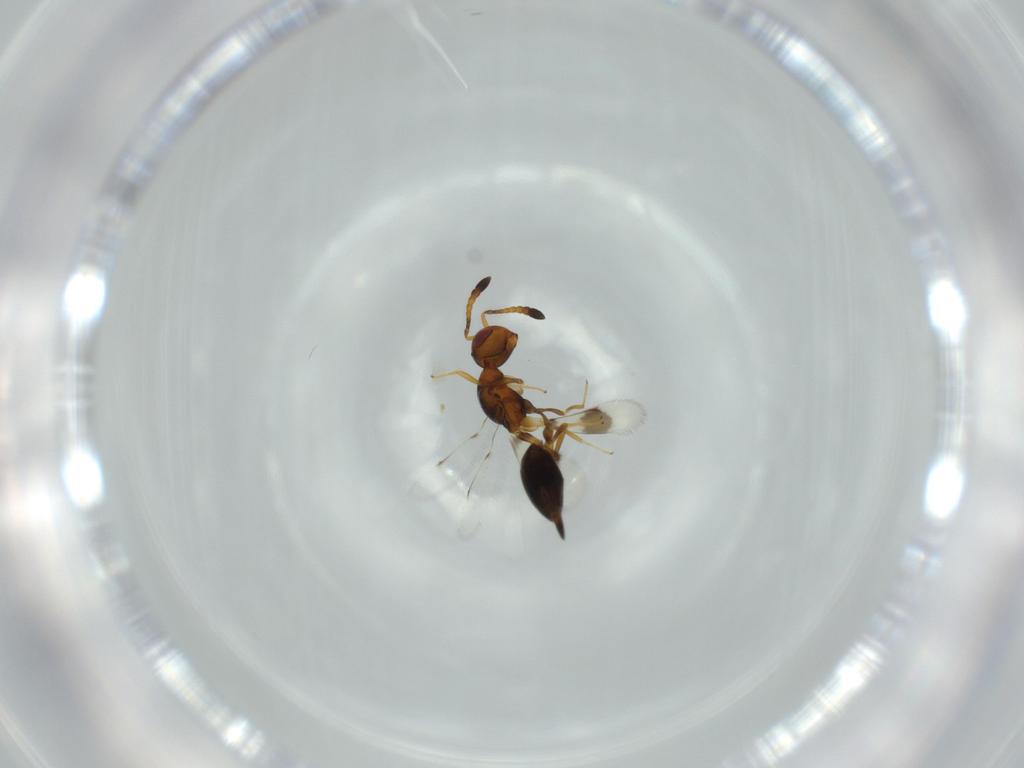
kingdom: Animalia
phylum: Arthropoda
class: Insecta
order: Hymenoptera
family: Cerocephalidae
